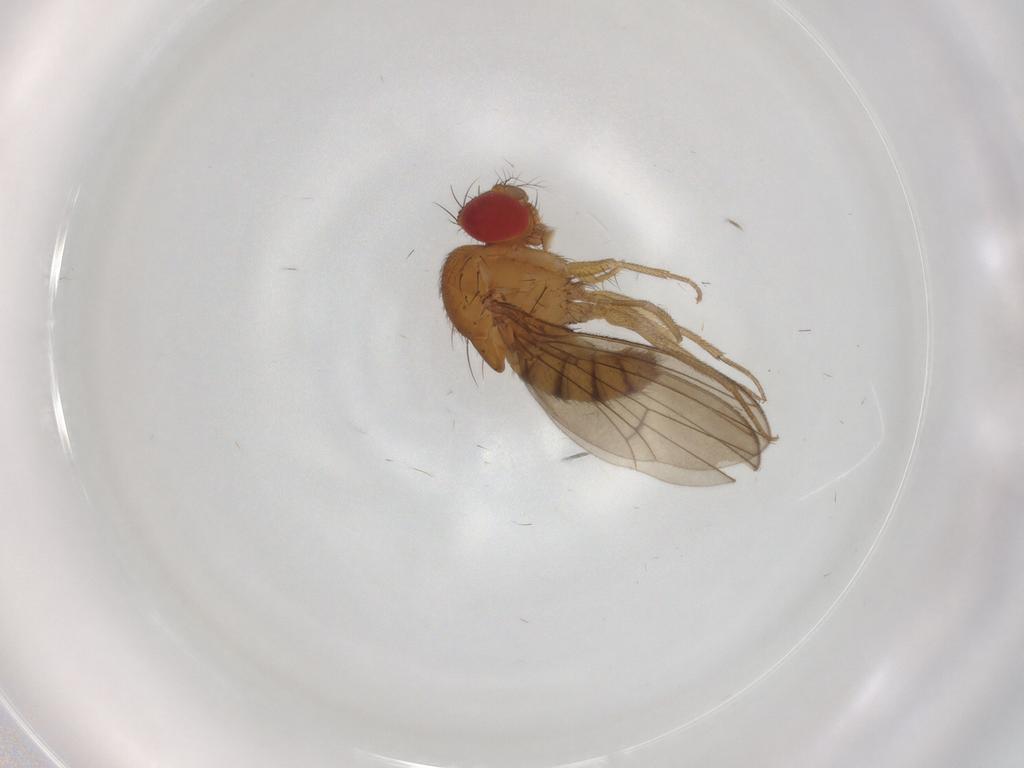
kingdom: Animalia
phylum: Arthropoda
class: Insecta
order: Diptera
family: Drosophilidae
